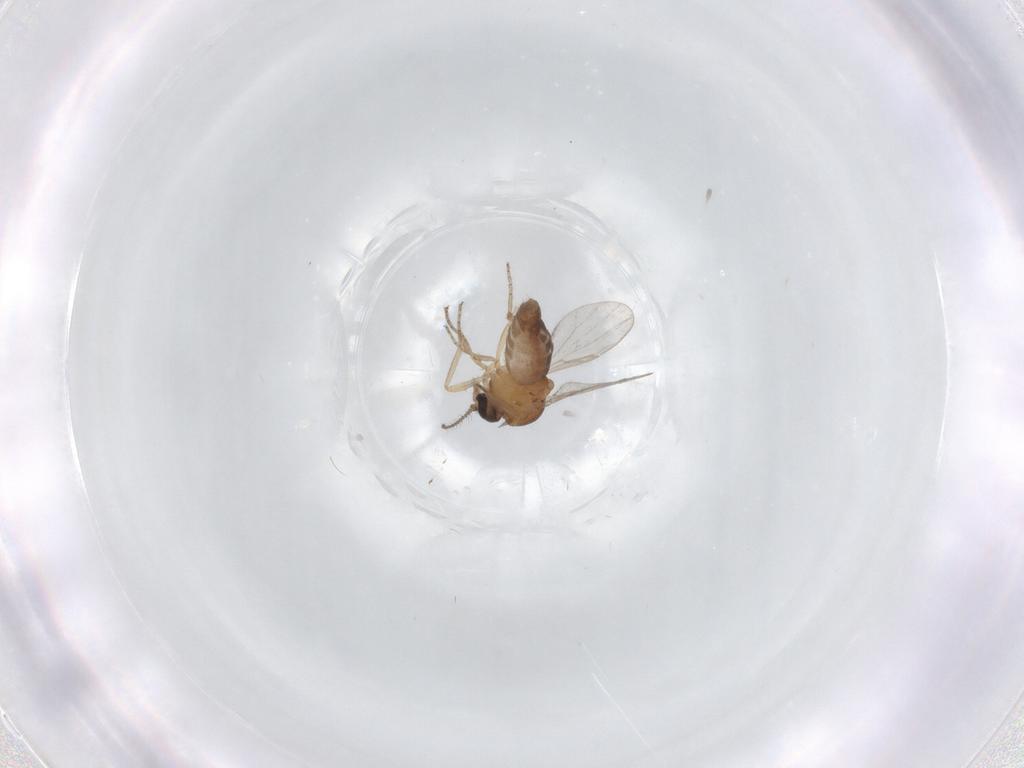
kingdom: Animalia
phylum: Arthropoda
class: Insecta
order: Diptera
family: Ceratopogonidae
